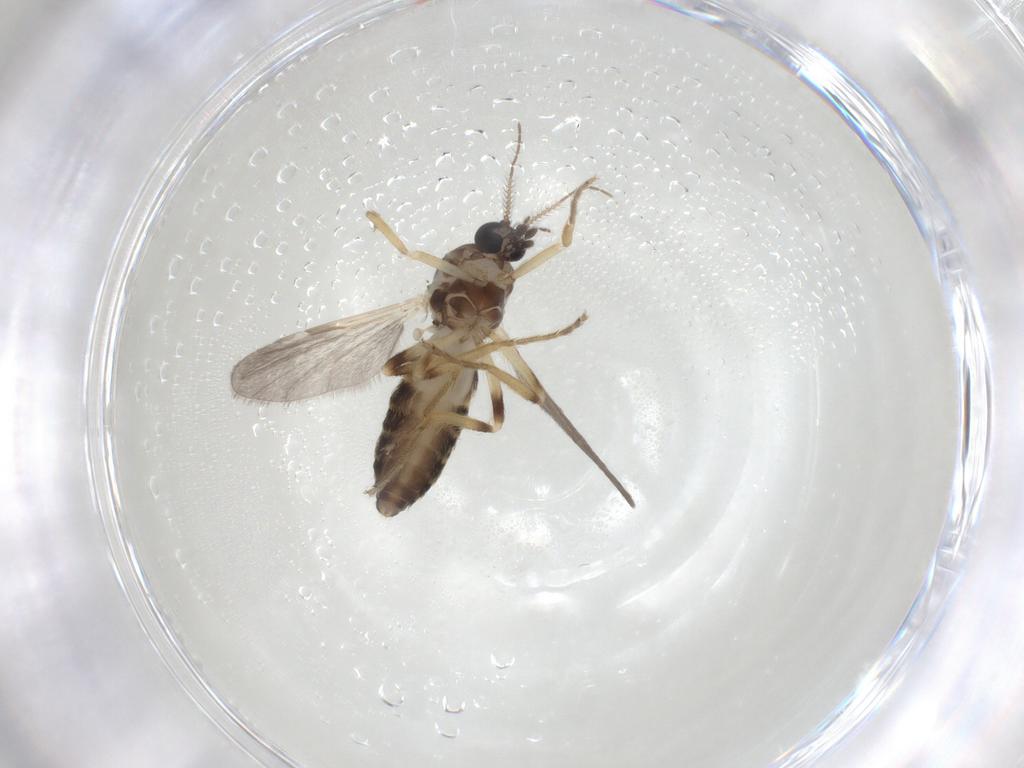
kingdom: Animalia
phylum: Arthropoda
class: Insecta
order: Diptera
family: Ceratopogonidae
